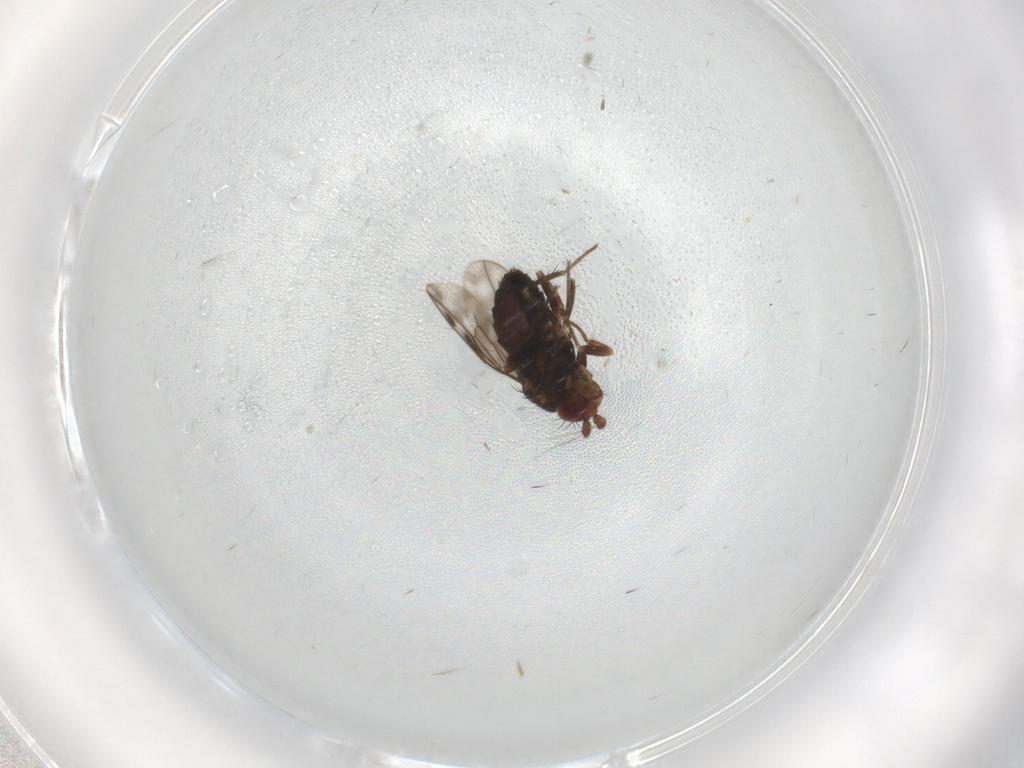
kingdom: Animalia
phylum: Arthropoda
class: Insecta
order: Diptera
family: Sphaeroceridae
